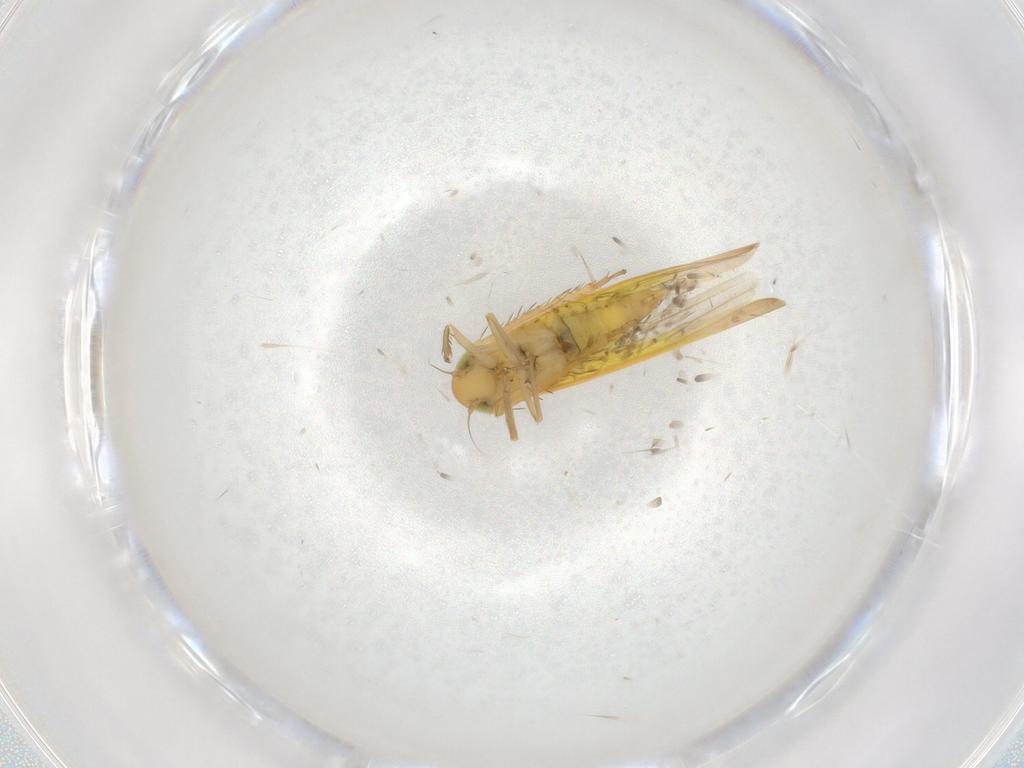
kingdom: Animalia
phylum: Arthropoda
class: Insecta
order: Hemiptera
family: Cicadellidae
